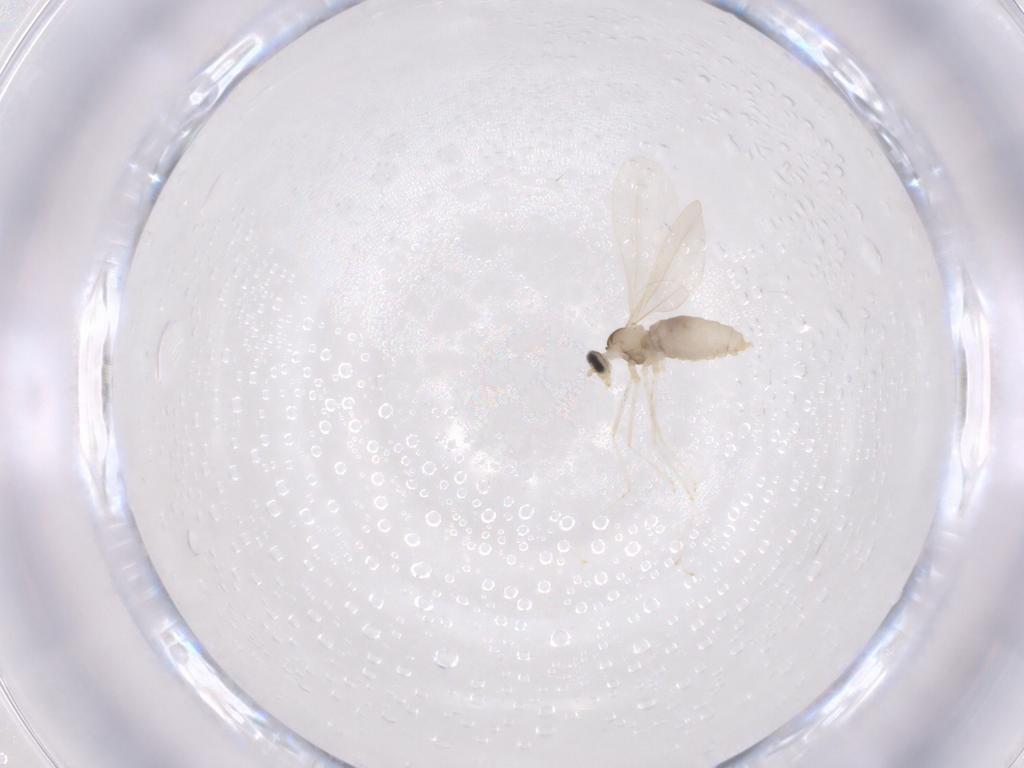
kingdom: Animalia
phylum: Arthropoda
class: Insecta
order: Diptera
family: Cecidomyiidae
